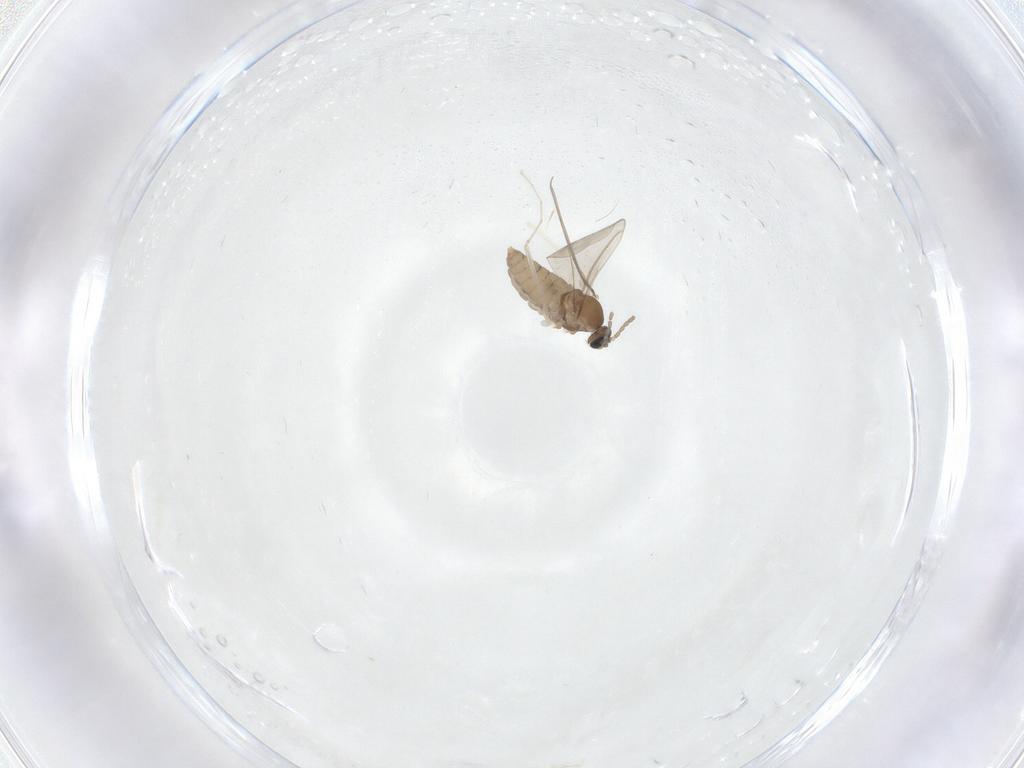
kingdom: Animalia
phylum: Arthropoda
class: Insecta
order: Diptera
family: Cecidomyiidae
